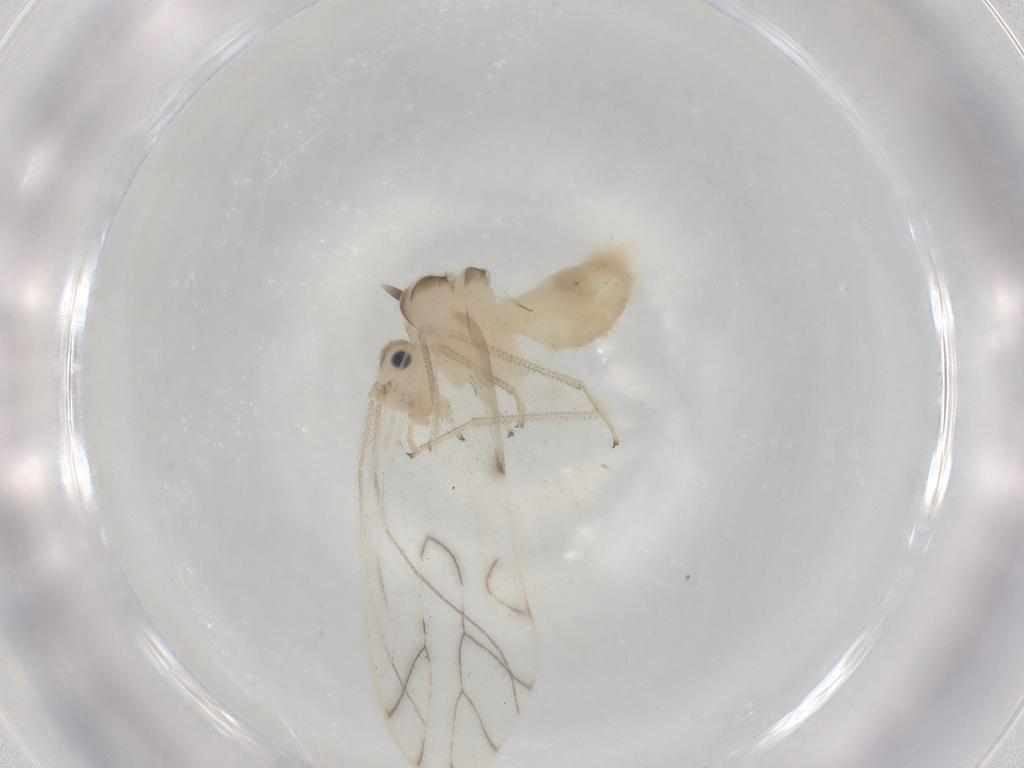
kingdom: Animalia
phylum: Arthropoda
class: Insecta
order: Psocodea
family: Caeciliusidae
